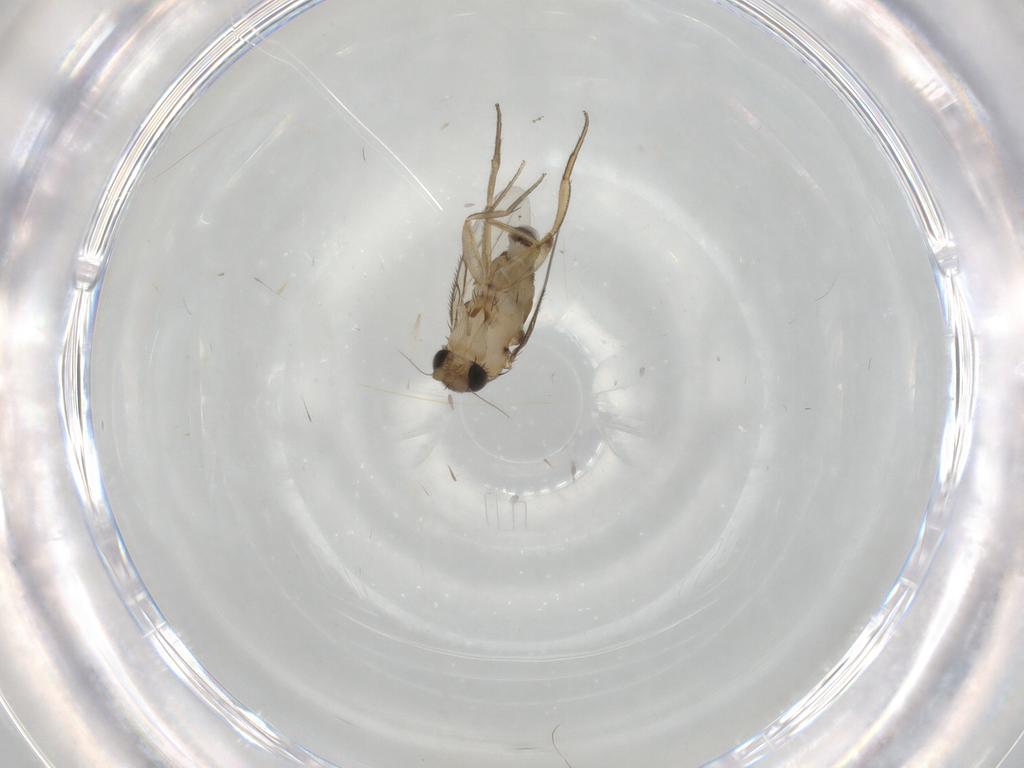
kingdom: Animalia
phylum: Arthropoda
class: Insecta
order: Diptera
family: Phoridae
